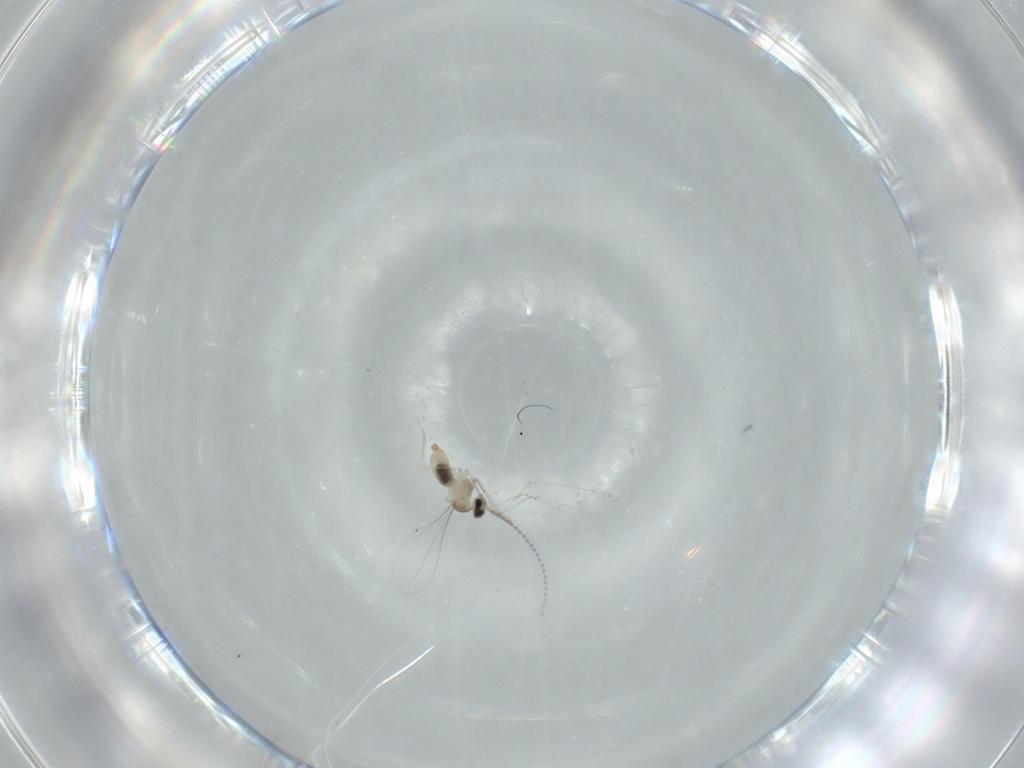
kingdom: Animalia
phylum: Arthropoda
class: Insecta
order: Diptera
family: Cecidomyiidae
